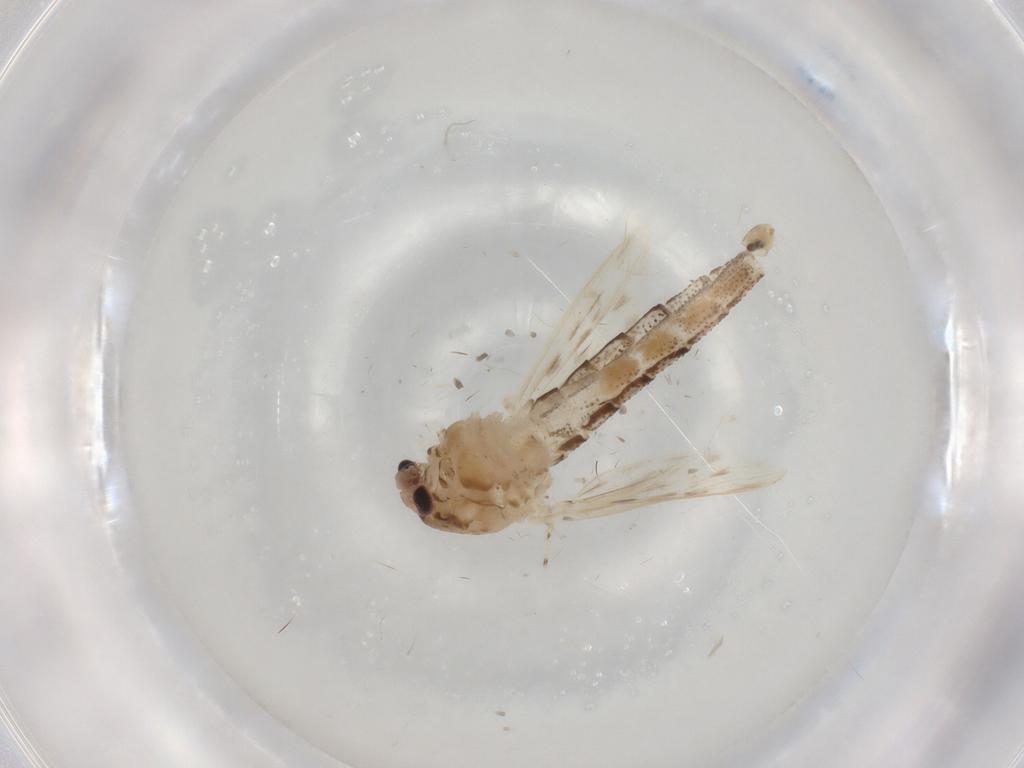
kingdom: Animalia
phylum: Arthropoda
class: Insecta
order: Diptera
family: Chaoboridae
